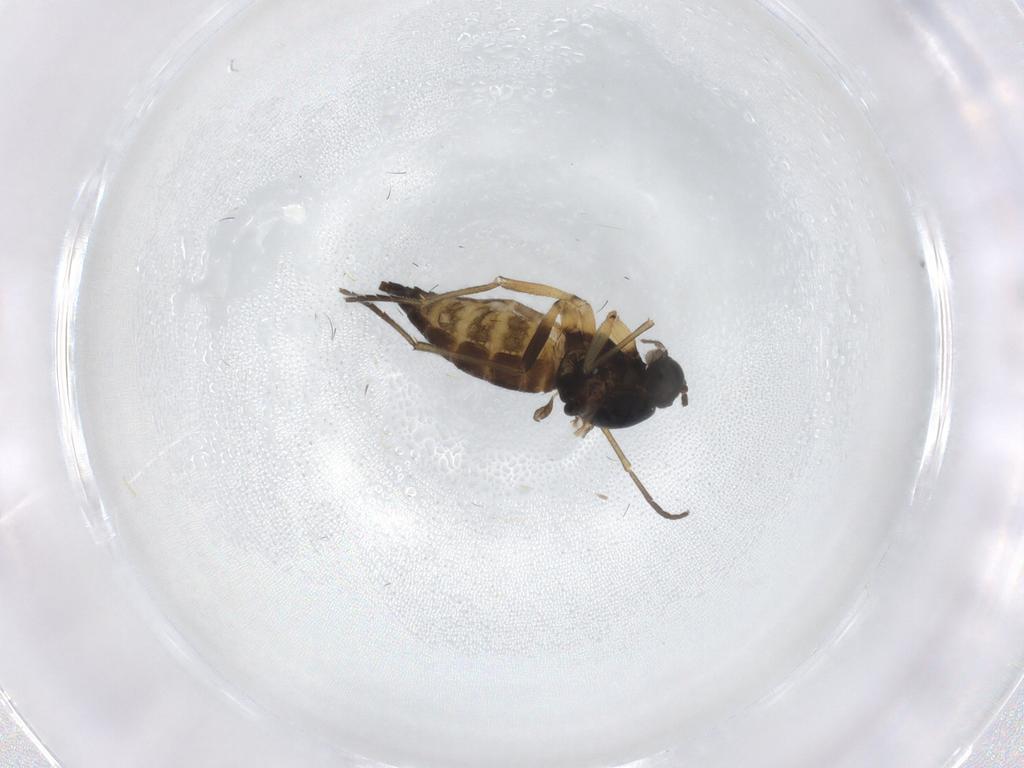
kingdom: Animalia
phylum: Arthropoda
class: Insecta
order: Diptera
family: Sciaridae
